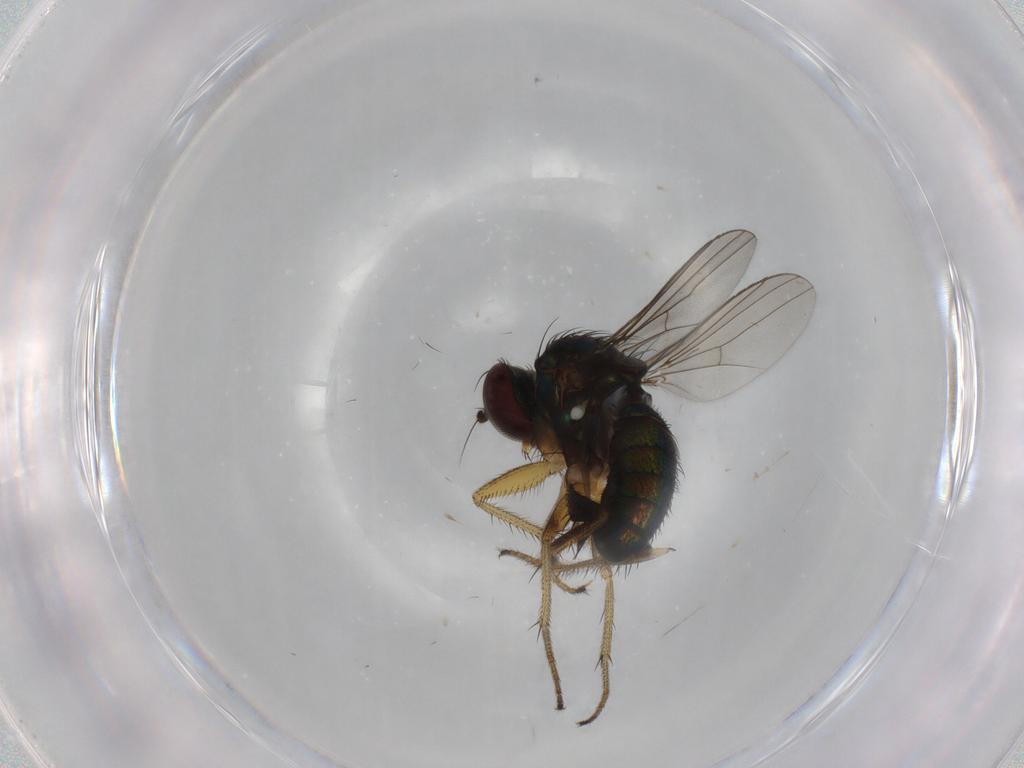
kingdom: Animalia
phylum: Arthropoda
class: Insecta
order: Diptera
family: Dolichopodidae
